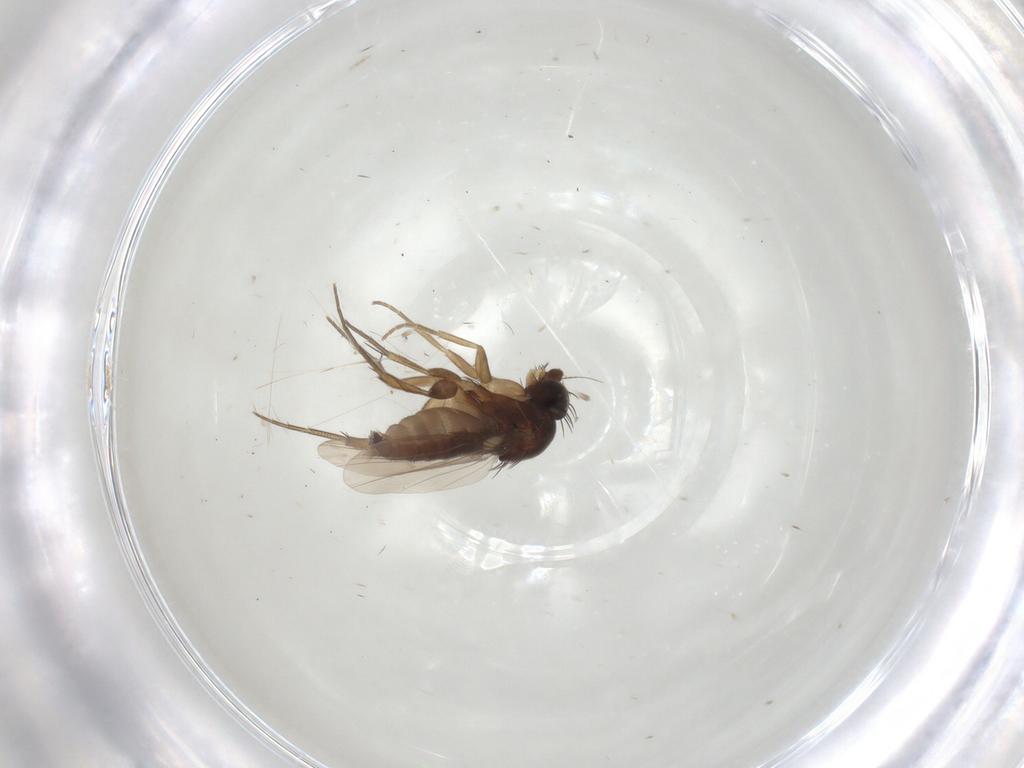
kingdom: Animalia
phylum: Arthropoda
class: Insecta
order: Diptera
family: Phoridae
